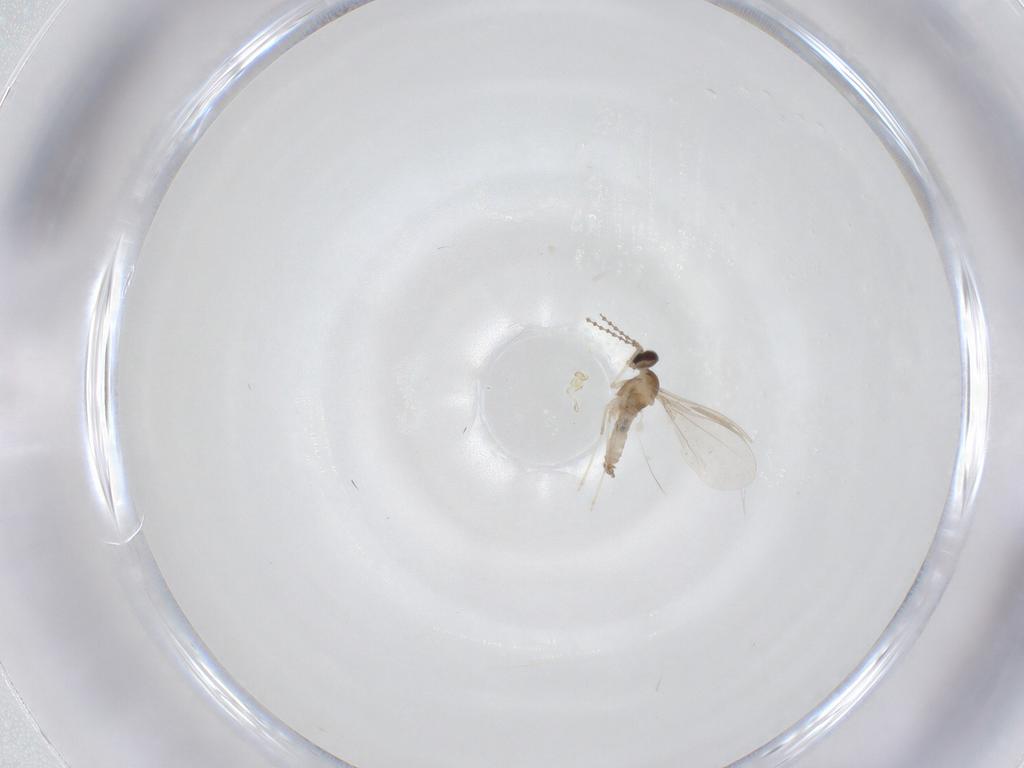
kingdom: Animalia
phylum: Arthropoda
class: Insecta
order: Diptera
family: Cecidomyiidae
